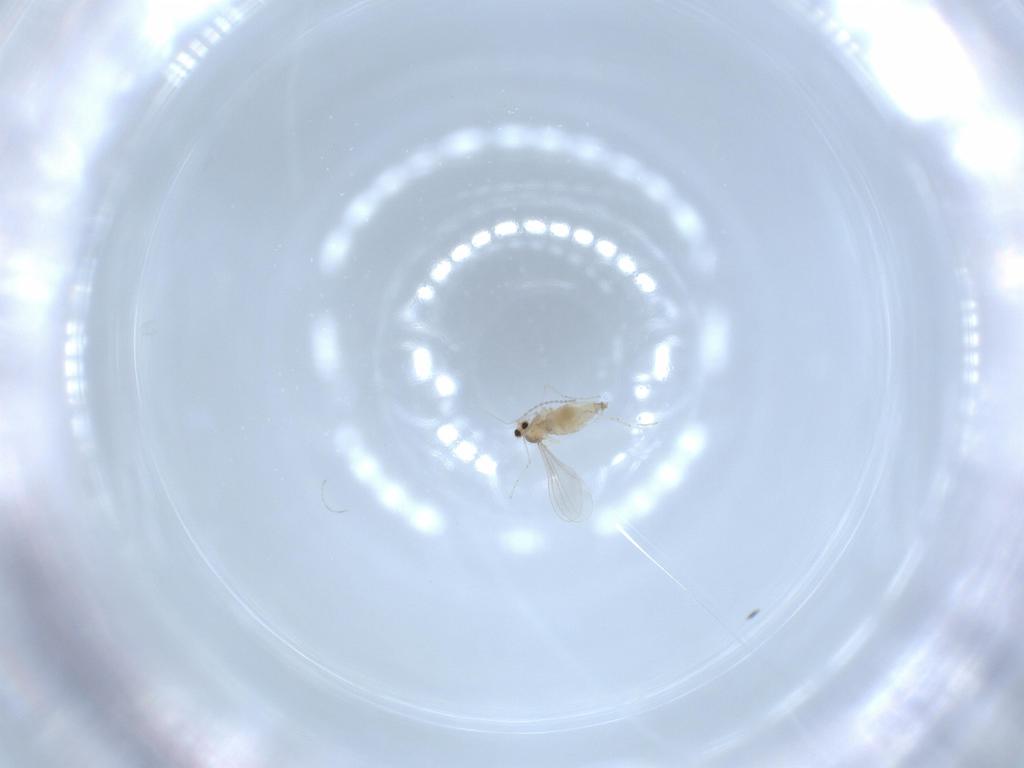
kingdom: Animalia
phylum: Arthropoda
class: Insecta
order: Diptera
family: Cecidomyiidae
